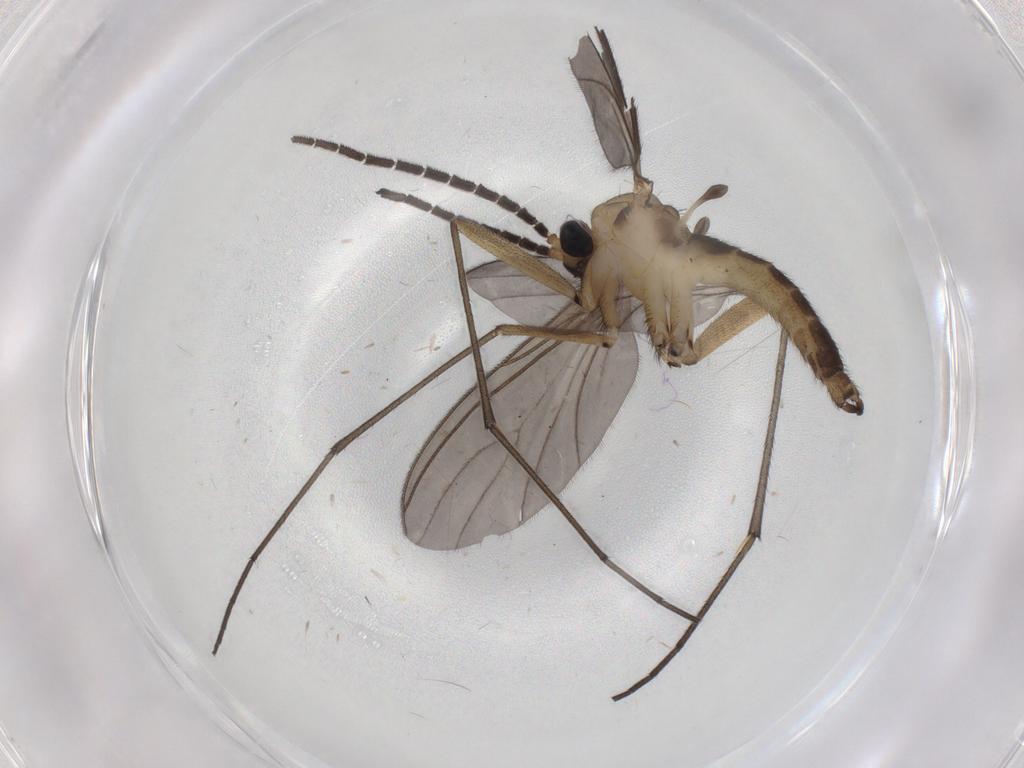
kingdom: Animalia
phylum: Arthropoda
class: Insecta
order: Diptera
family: Sciaridae
